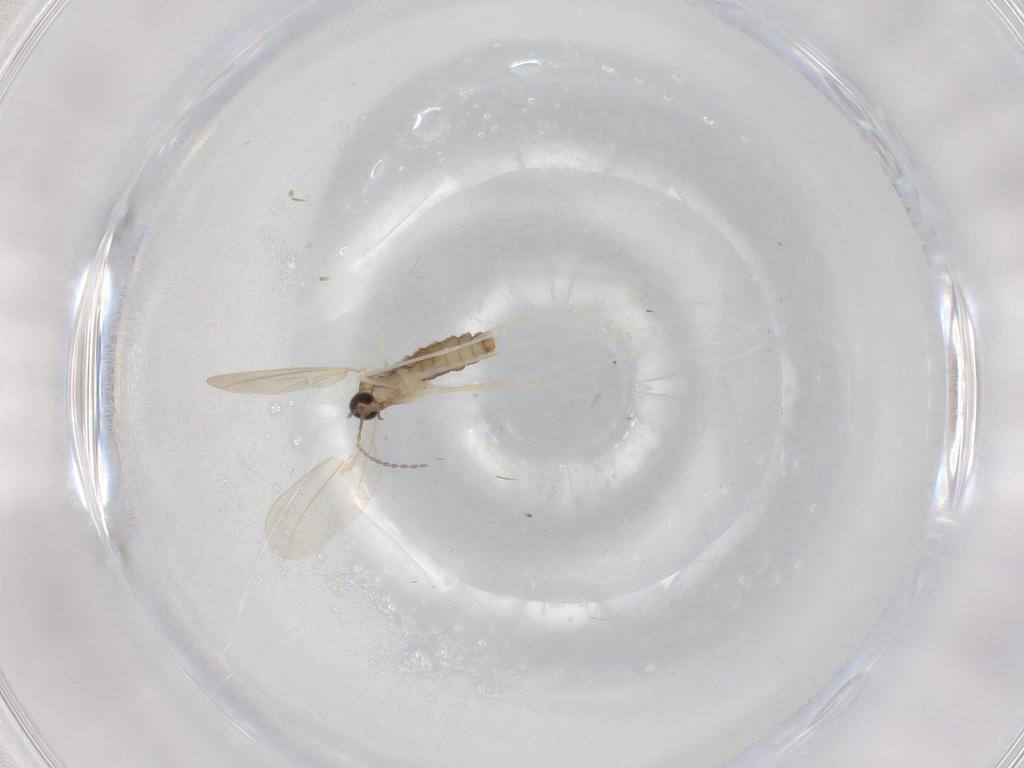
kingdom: Animalia
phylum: Arthropoda
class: Insecta
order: Diptera
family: Cecidomyiidae
